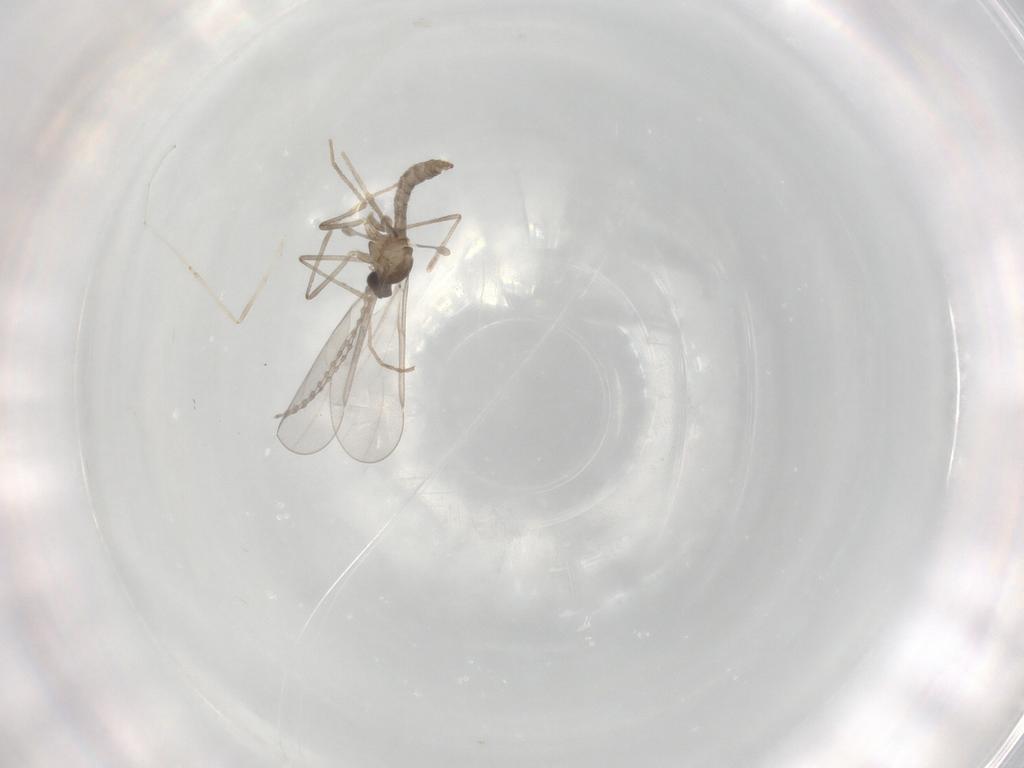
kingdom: Animalia
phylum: Arthropoda
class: Insecta
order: Diptera
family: Cecidomyiidae
